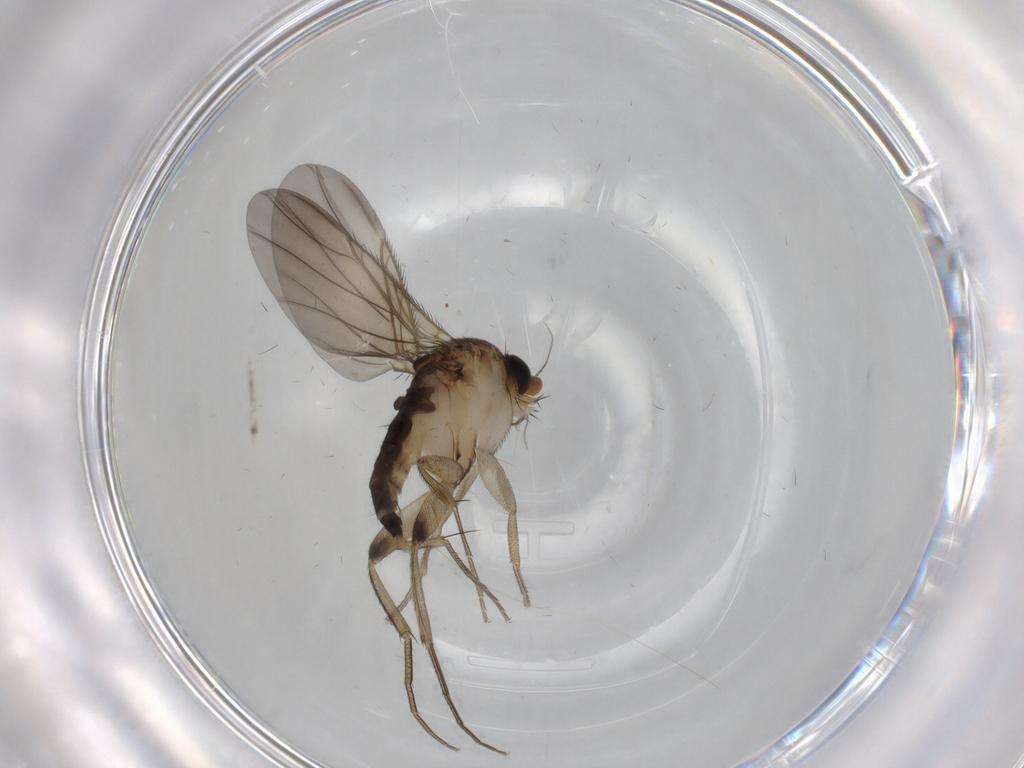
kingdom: Animalia
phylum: Arthropoda
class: Insecta
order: Diptera
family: Phoridae
